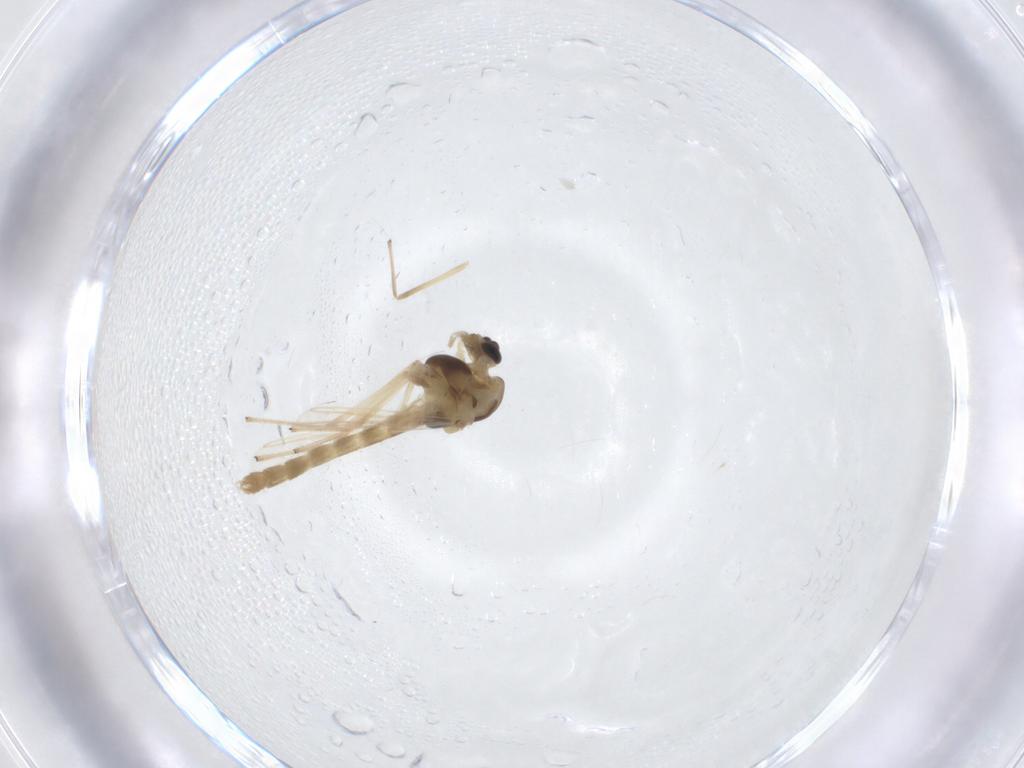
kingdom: Animalia
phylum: Arthropoda
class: Insecta
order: Diptera
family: Chironomidae
